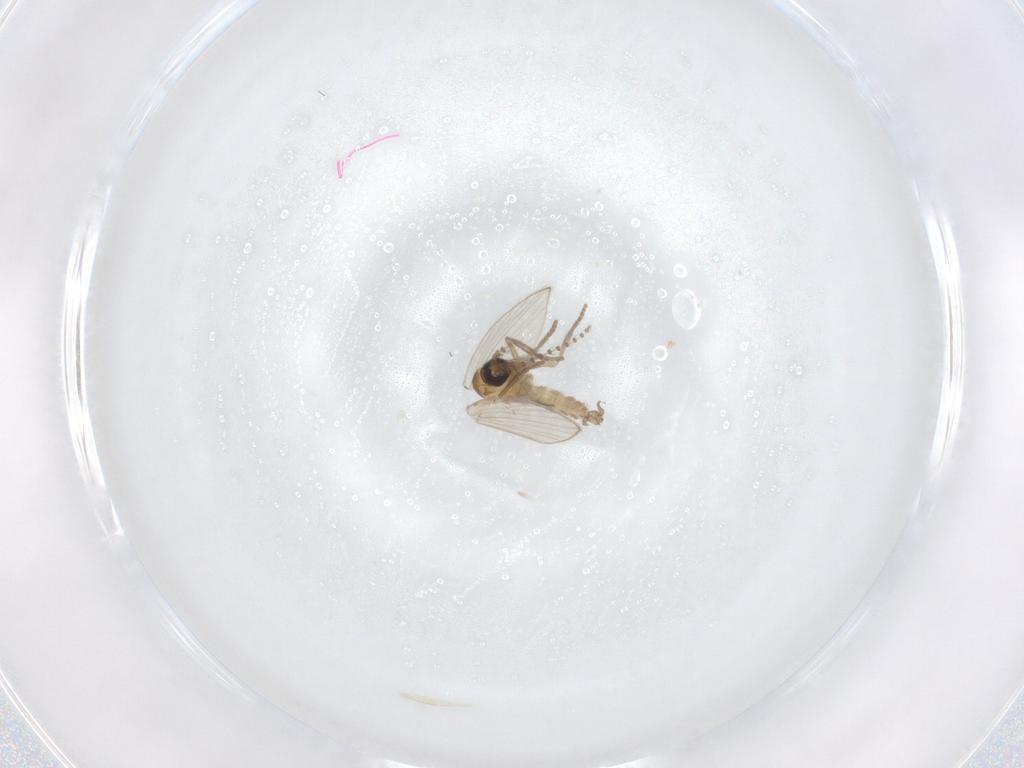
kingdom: Animalia
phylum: Arthropoda
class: Insecta
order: Diptera
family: Psychodidae
